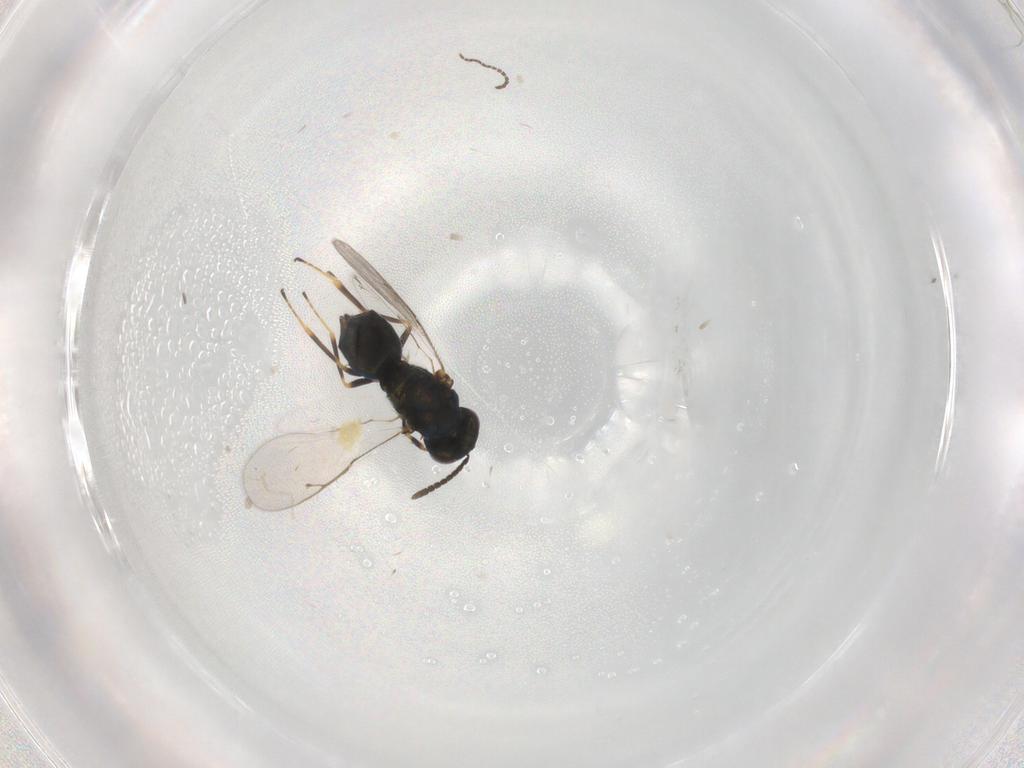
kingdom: Animalia
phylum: Arthropoda
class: Insecta
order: Hymenoptera
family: Pteromalidae
